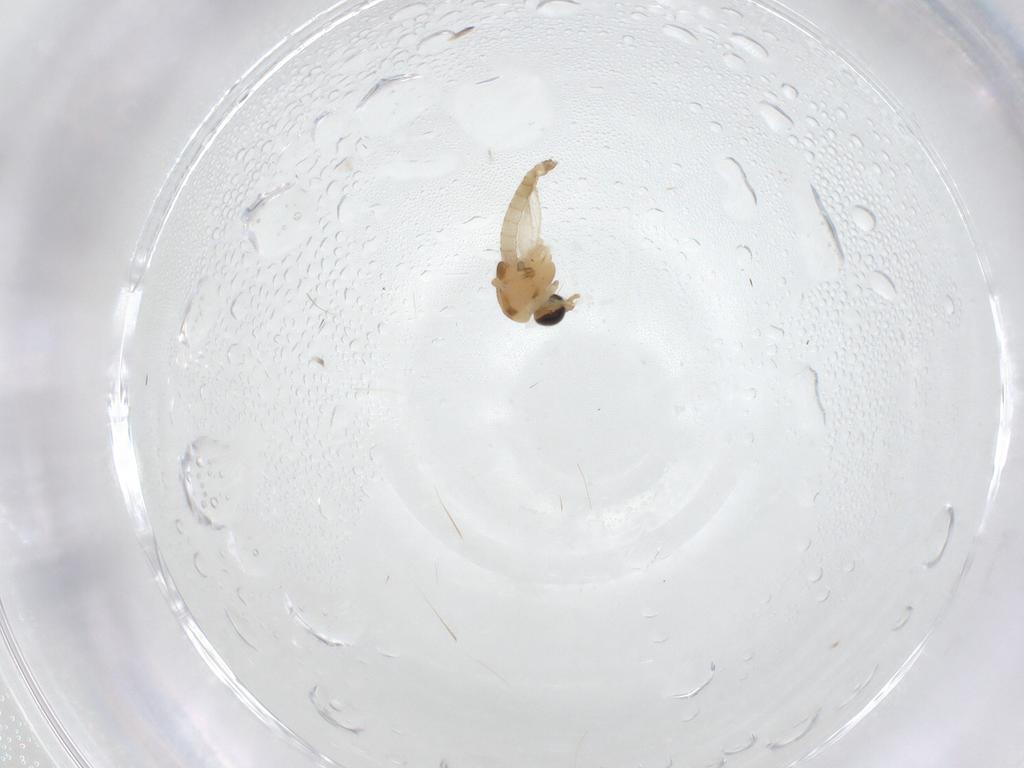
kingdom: Animalia
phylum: Arthropoda
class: Insecta
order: Diptera
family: Chironomidae
